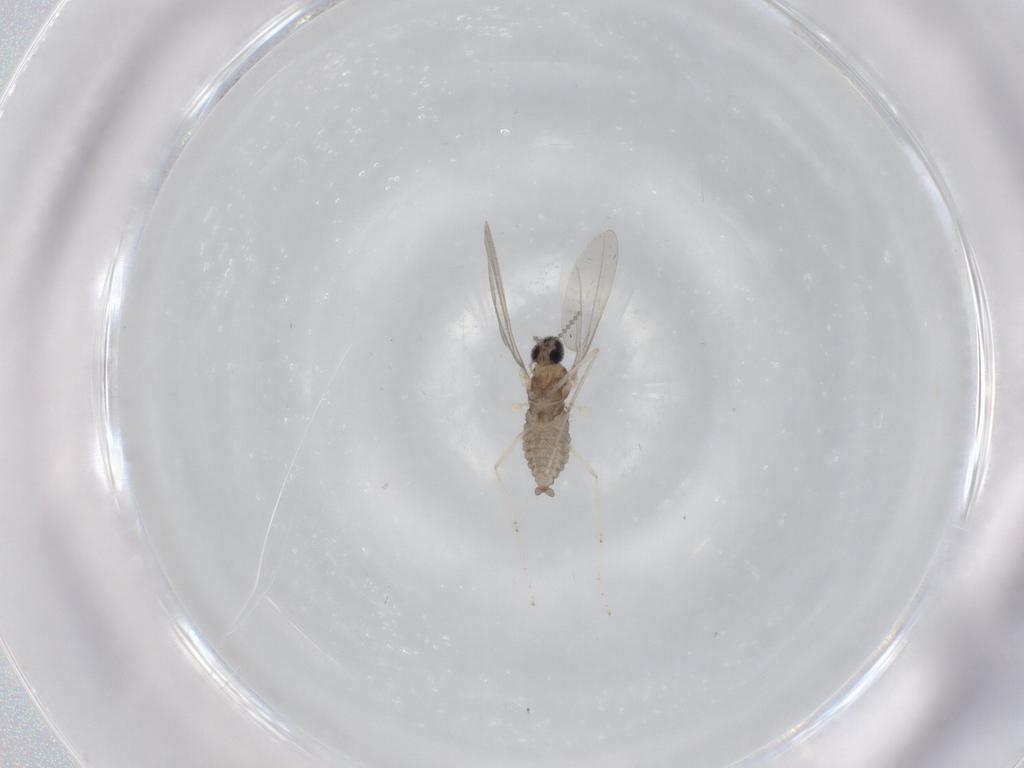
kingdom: Animalia
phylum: Arthropoda
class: Insecta
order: Diptera
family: Cecidomyiidae
